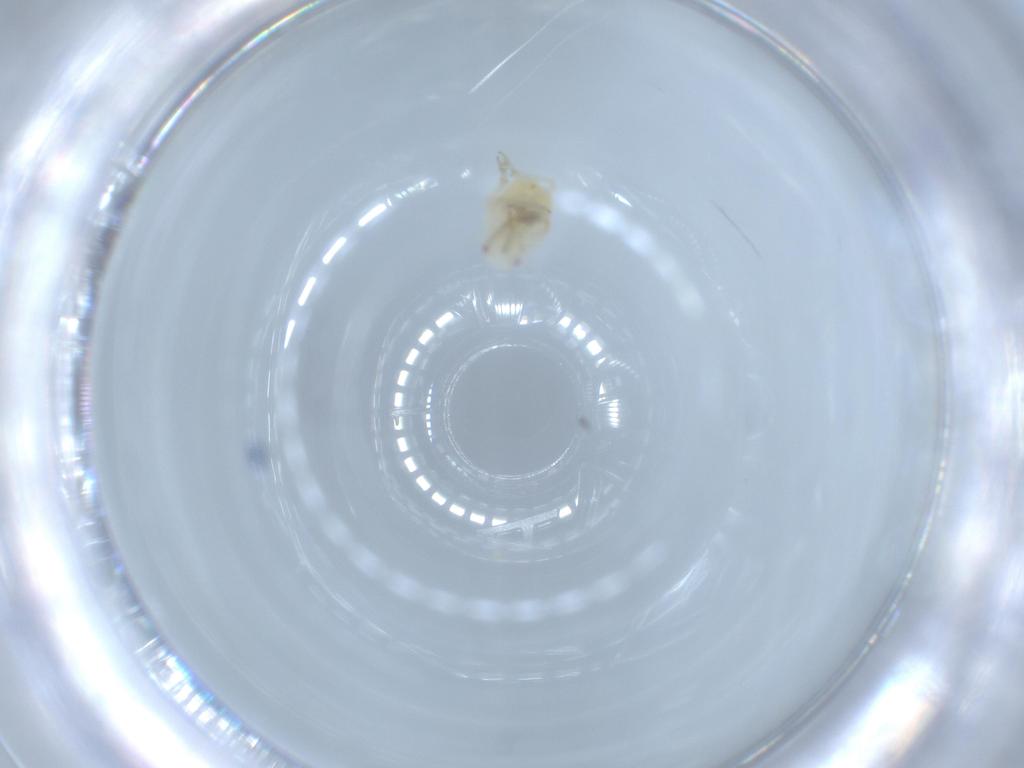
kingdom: Animalia
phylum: Arthropoda
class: Insecta
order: Hemiptera
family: Flatidae
